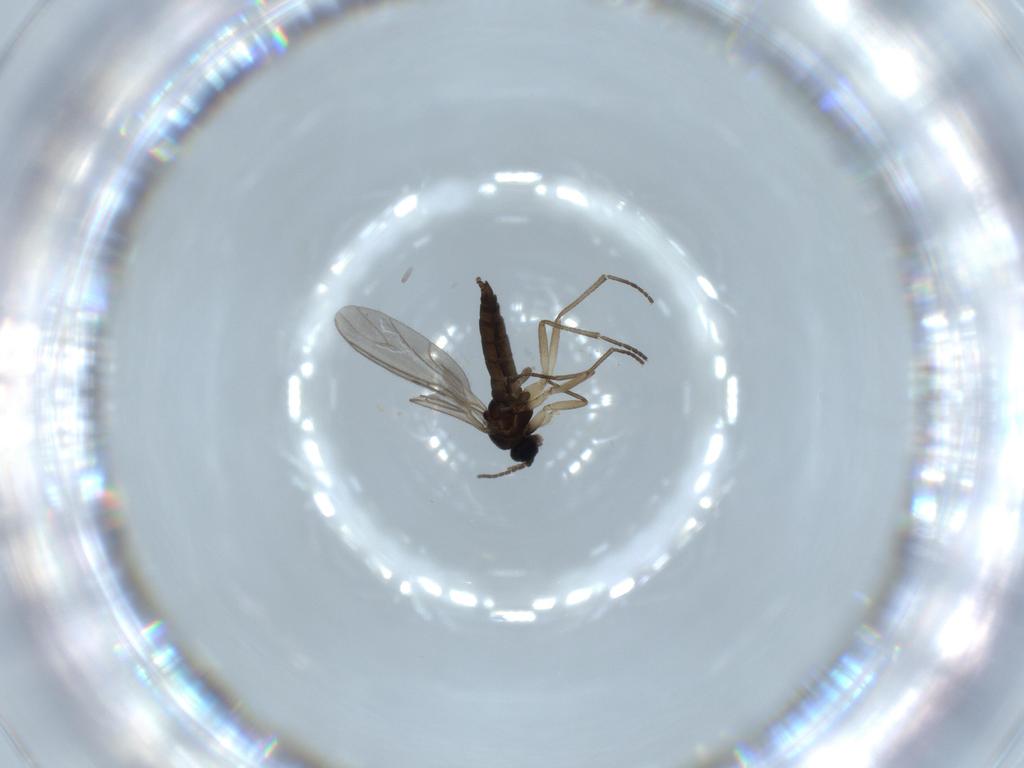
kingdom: Animalia
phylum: Arthropoda
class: Insecta
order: Diptera
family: Sciaridae
